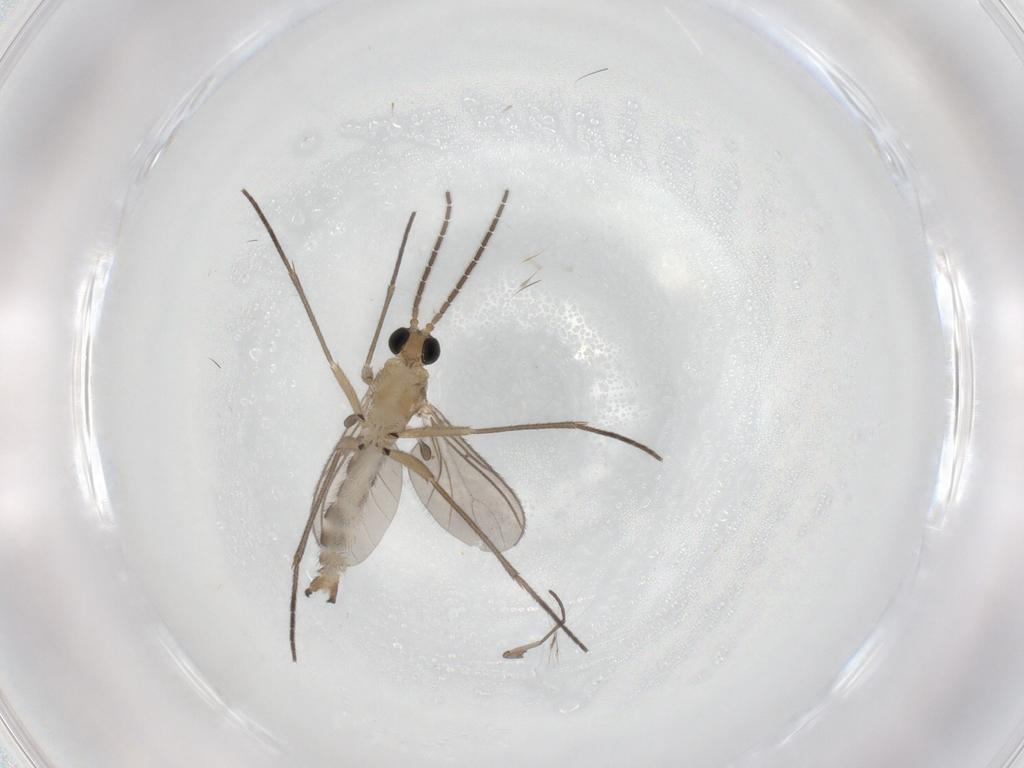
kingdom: Animalia
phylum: Arthropoda
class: Insecta
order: Diptera
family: Sciaridae
